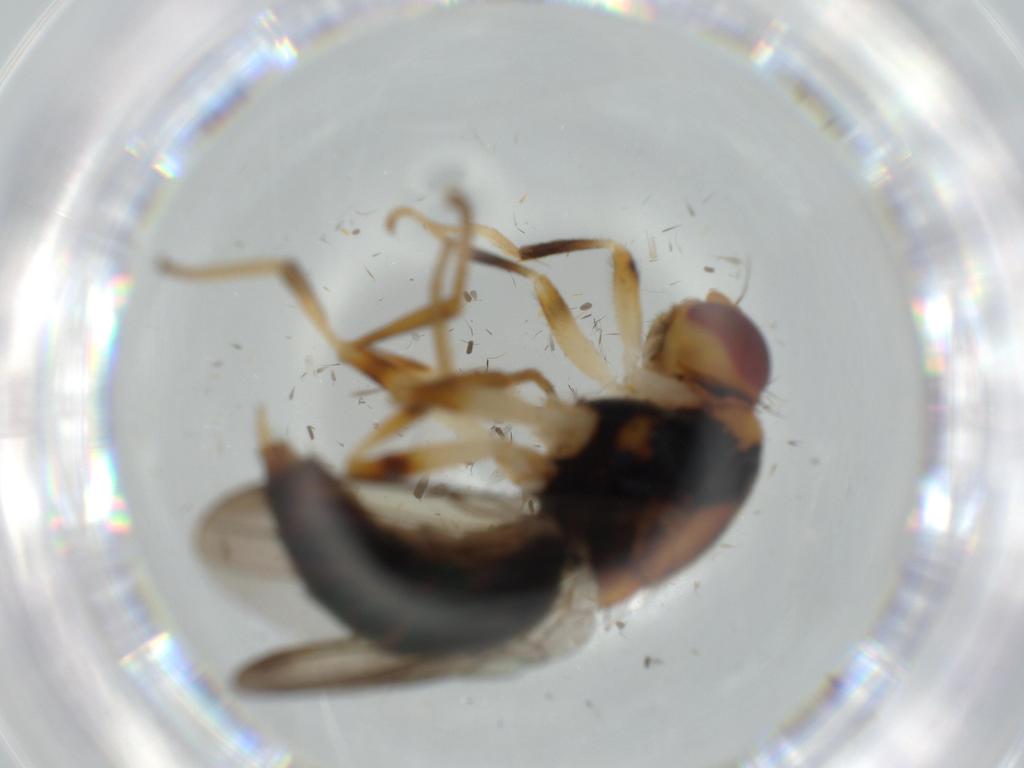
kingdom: Animalia
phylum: Arthropoda
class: Insecta
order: Diptera
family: Psilidae
